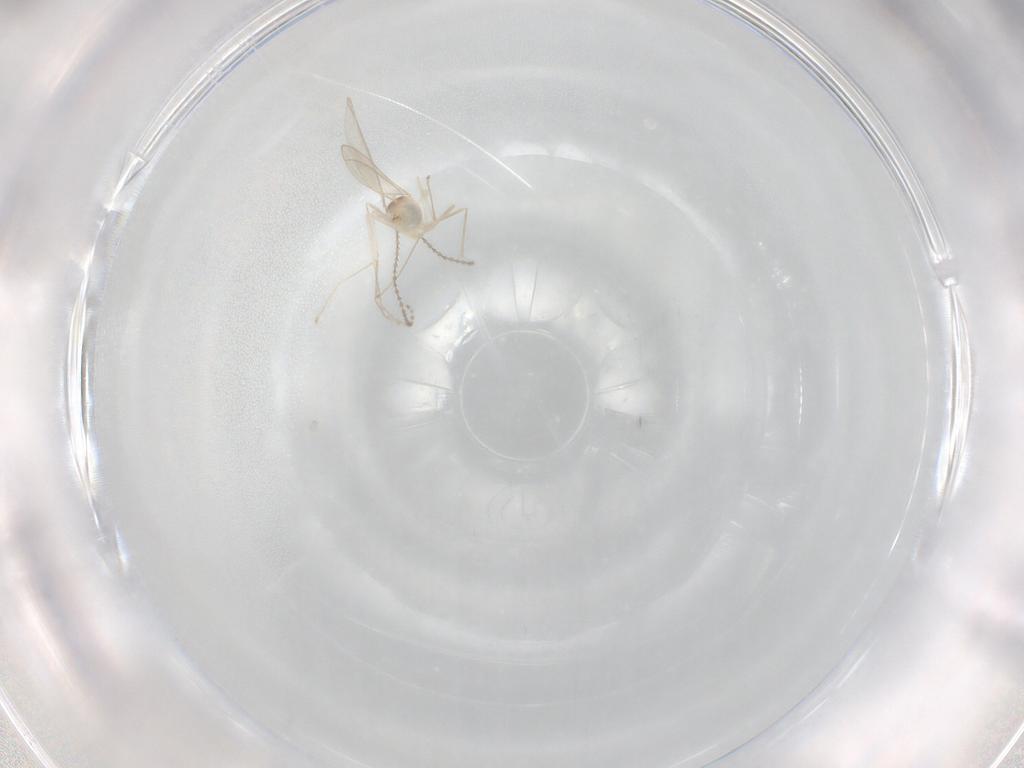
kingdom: Animalia
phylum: Arthropoda
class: Insecta
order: Diptera
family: Cecidomyiidae
